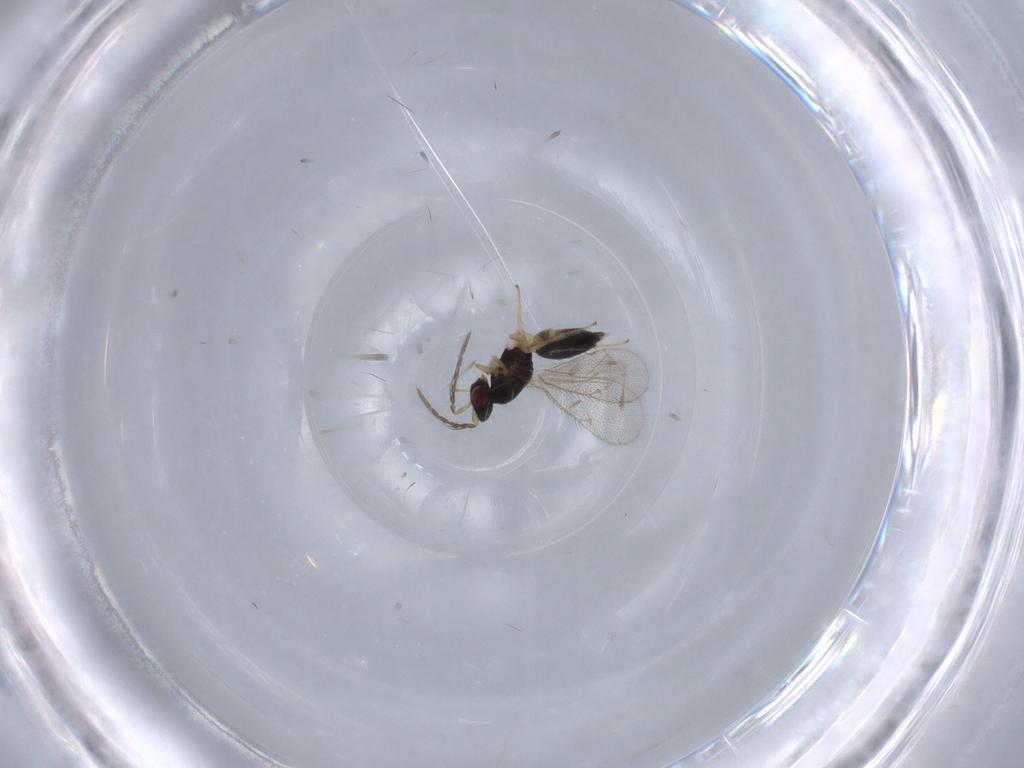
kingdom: Animalia
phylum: Arthropoda
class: Insecta
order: Hymenoptera
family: Eulophidae
